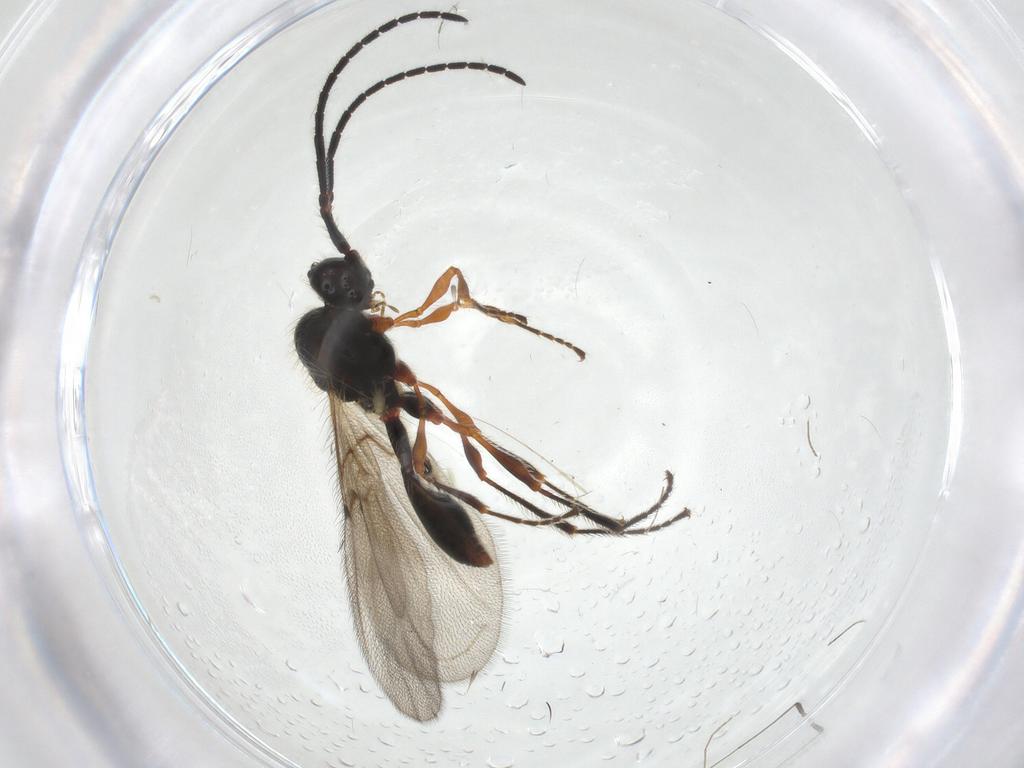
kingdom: Animalia
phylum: Arthropoda
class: Insecta
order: Hymenoptera
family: Diapriidae
